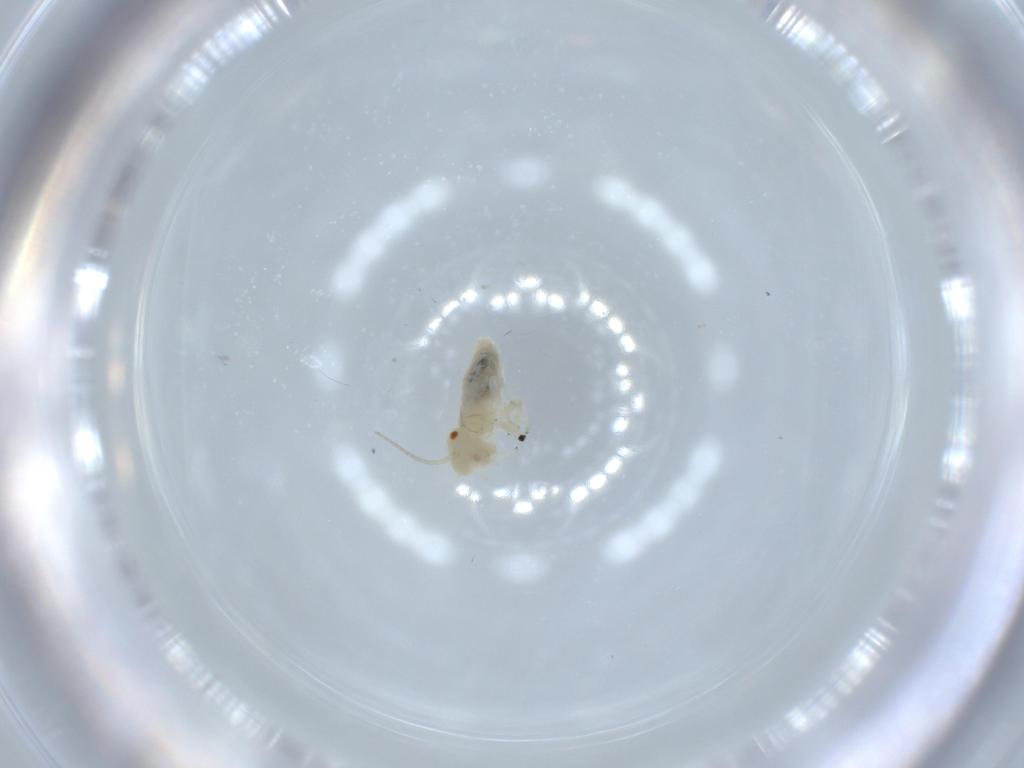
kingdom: Animalia
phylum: Arthropoda
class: Insecta
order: Psocodea
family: Caeciliusidae
